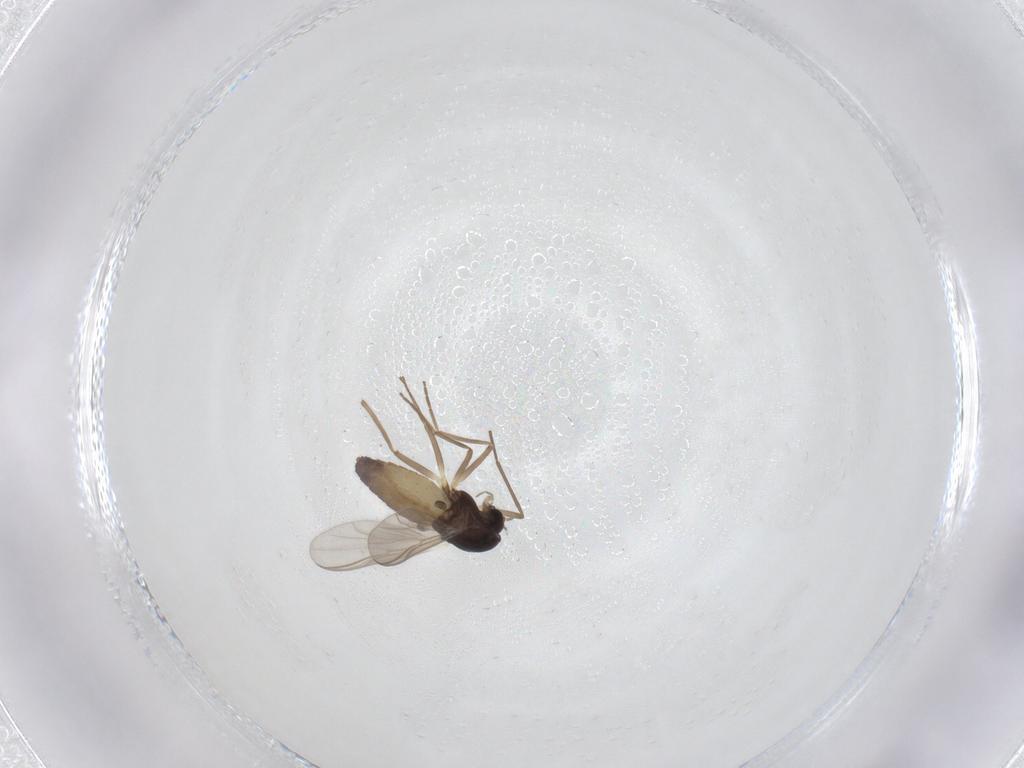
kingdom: Animalia
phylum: Arthropoda
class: Insecta
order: Diptera
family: Chironomidae
